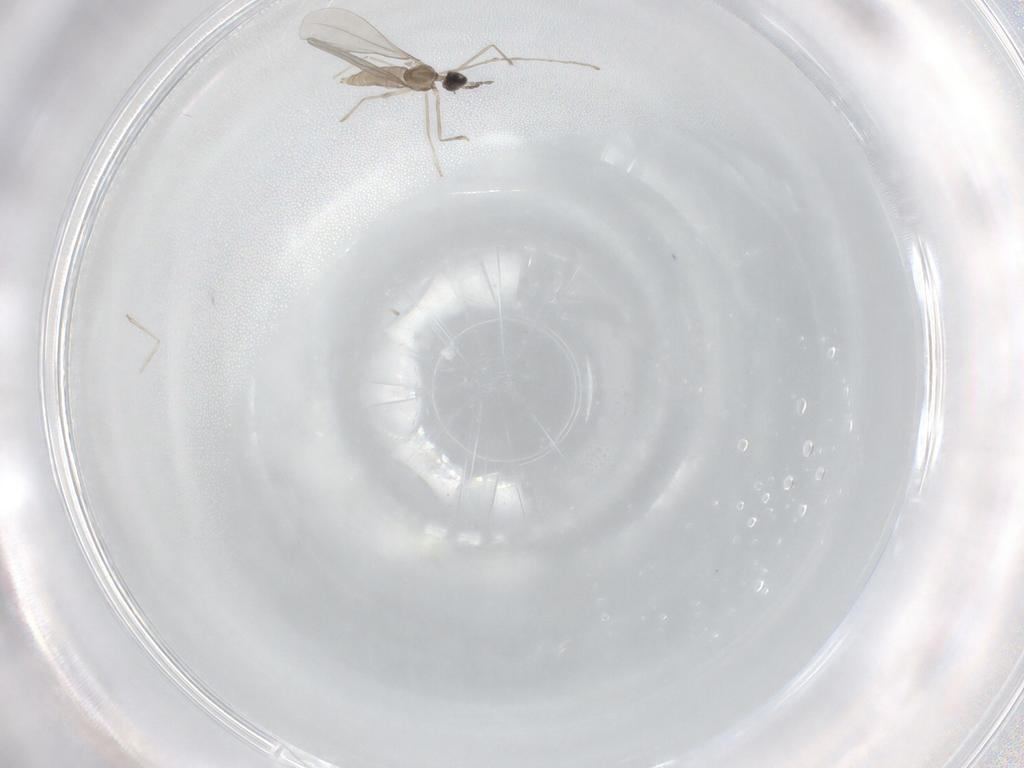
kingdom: Animalia
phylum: Arthropoda
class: Insecta
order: Diptera
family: Cecidomyiidae
